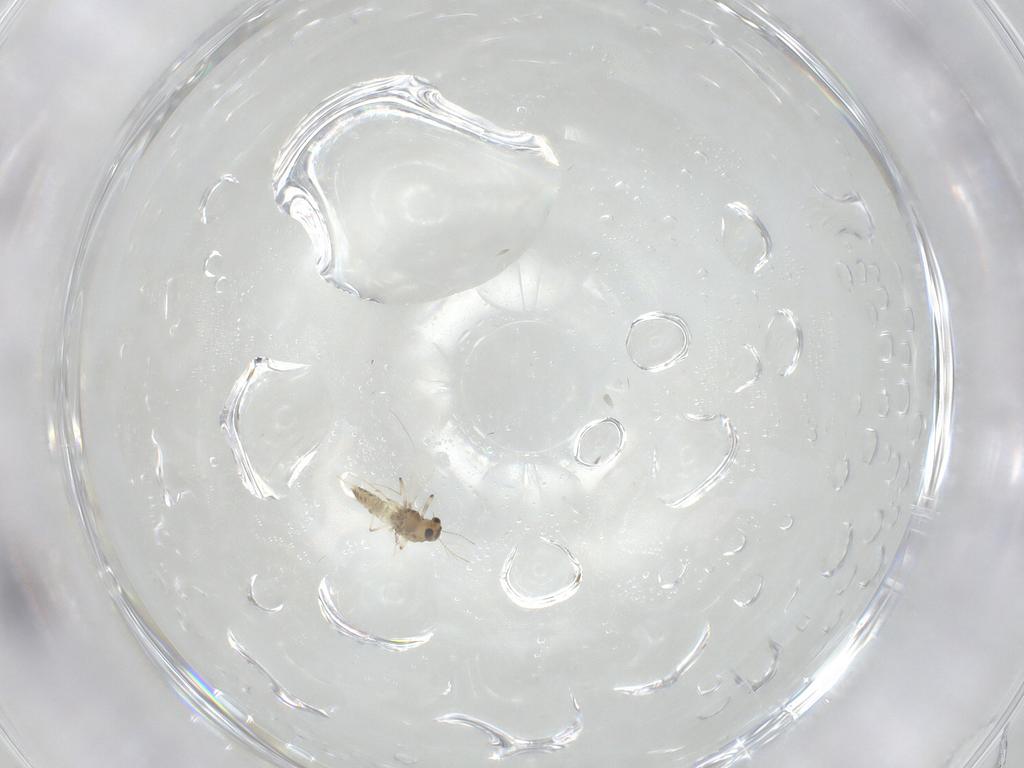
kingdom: Animalia
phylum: Arthropoda
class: Insecta
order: Diptera
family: Chironomidae
